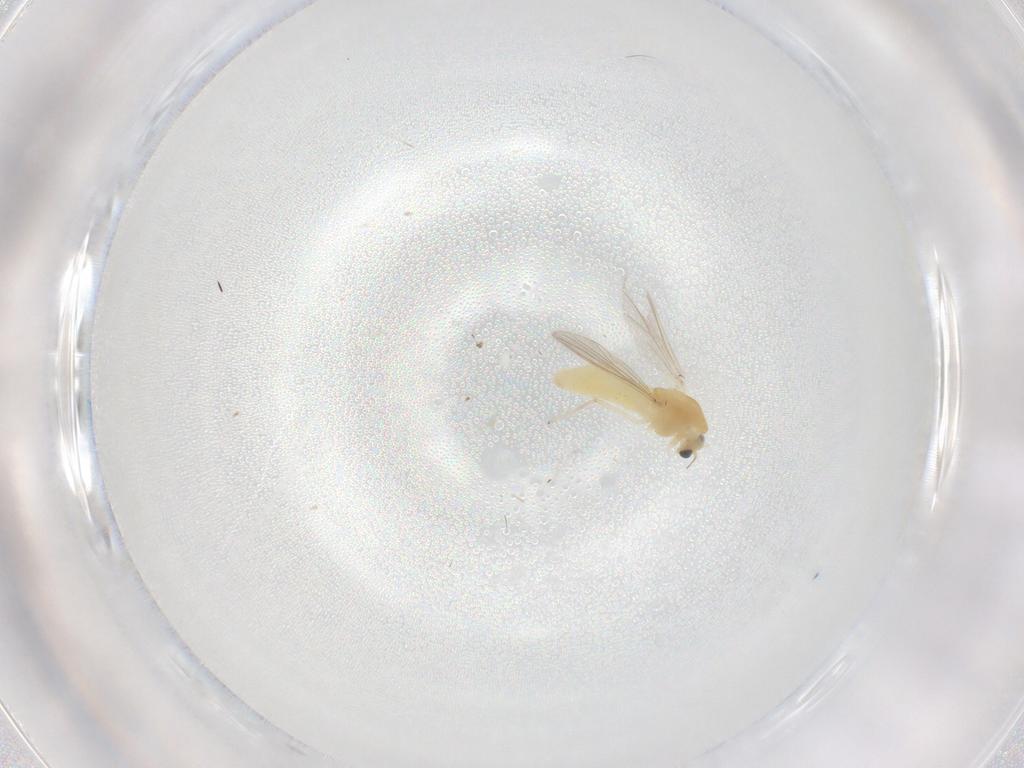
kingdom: Animalia
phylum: Arthropoda
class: Insecta
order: Diptera
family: Chironomidae
